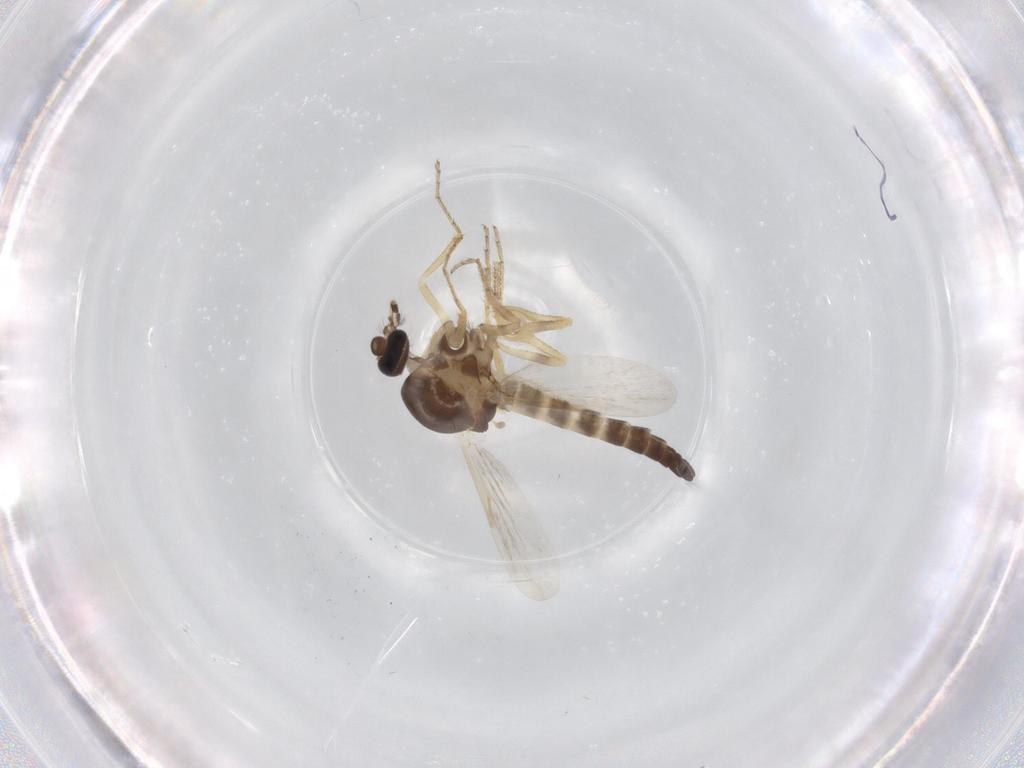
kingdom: Animalia
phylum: Arthropoda
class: Insecta
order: Diptera
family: Ceratopogonidae
